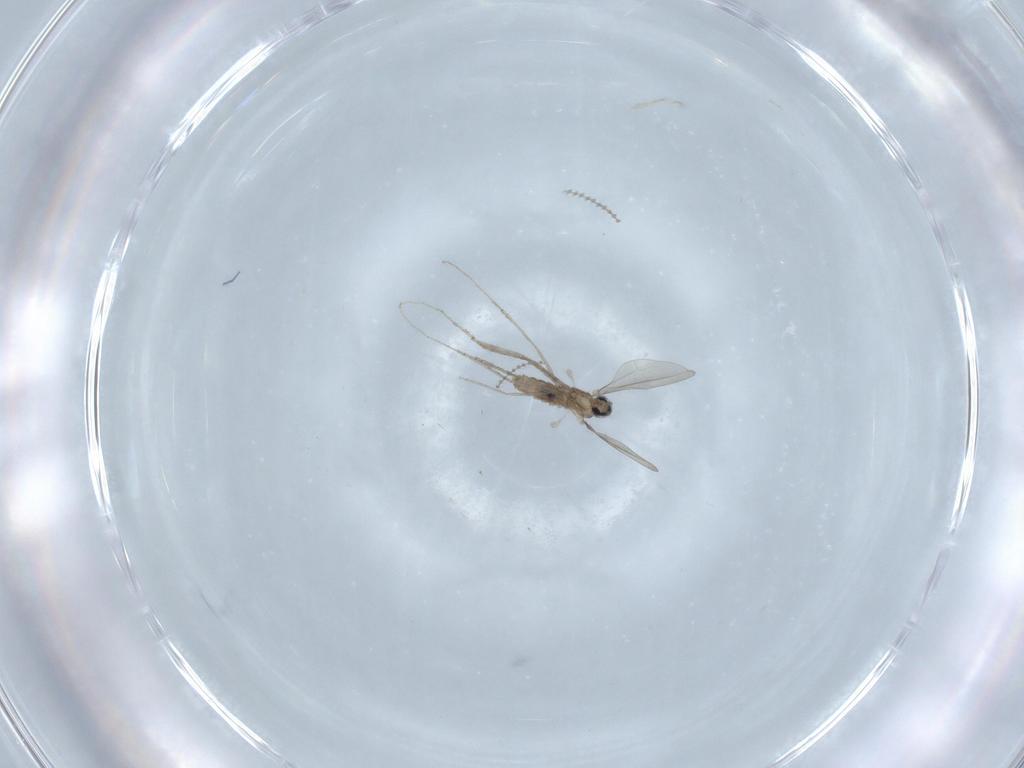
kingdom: Animalia
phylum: Arthropoda
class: Insecta
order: Diptera
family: Cecidomyiidae
